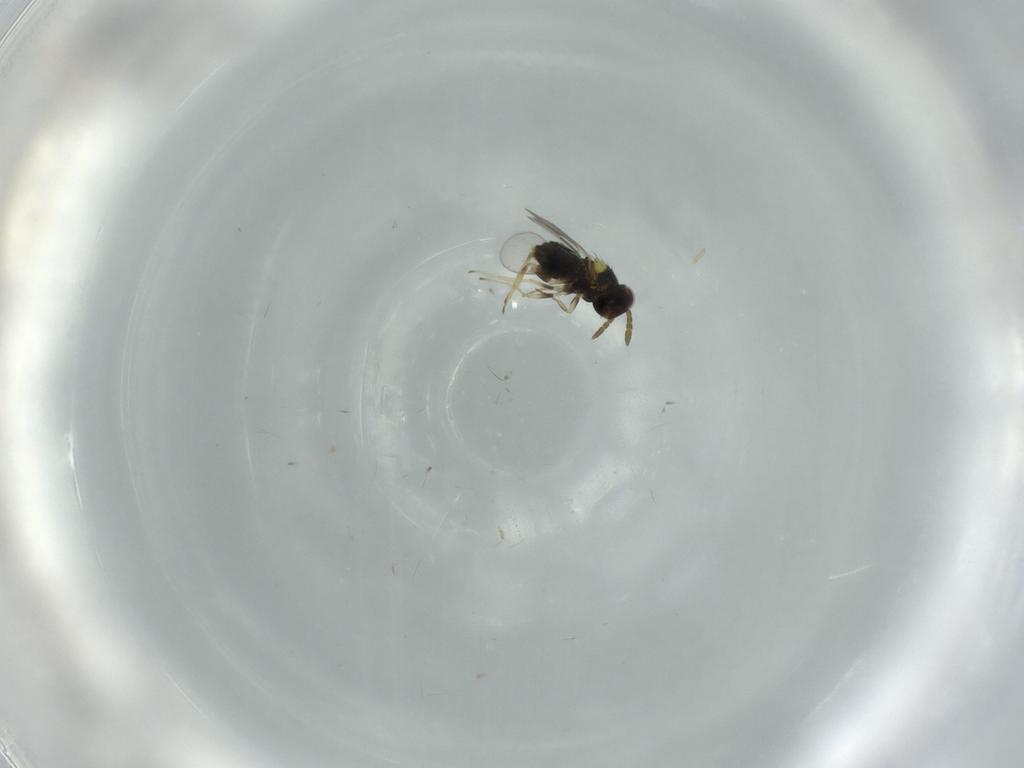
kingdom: Animalia
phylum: Arthropoda
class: Insecta
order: Hymenoptera
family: Aphelinidae
